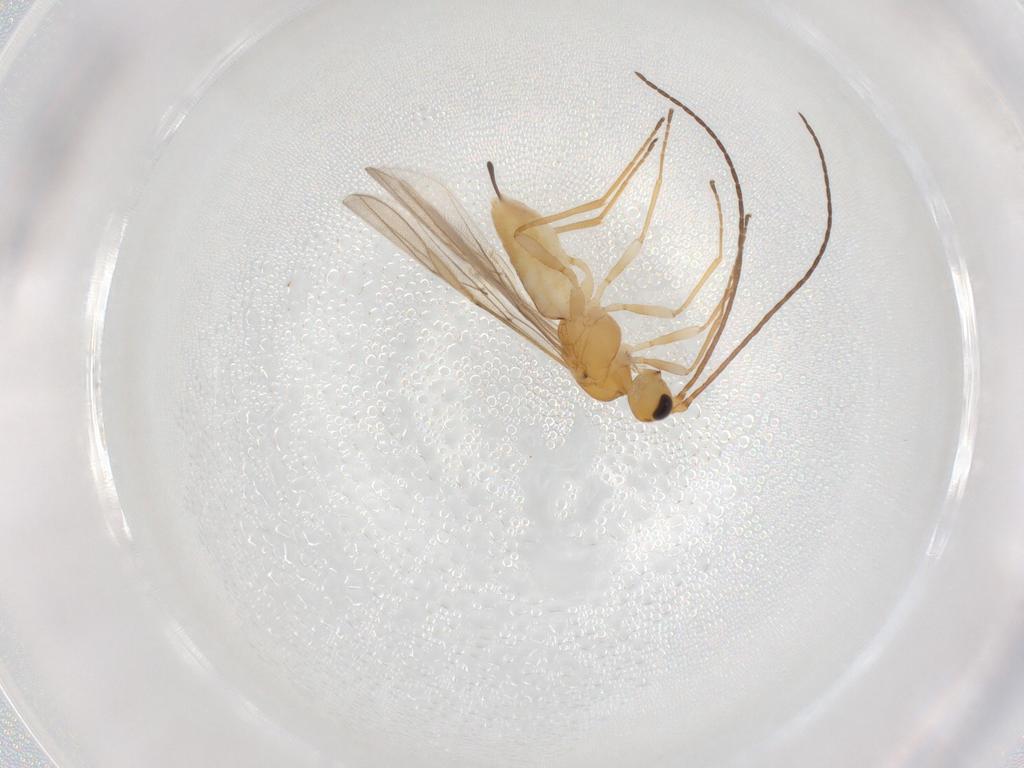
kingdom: Animalia
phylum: Arthropoda
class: Insecta
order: Hymenoptera
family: Braconidae
